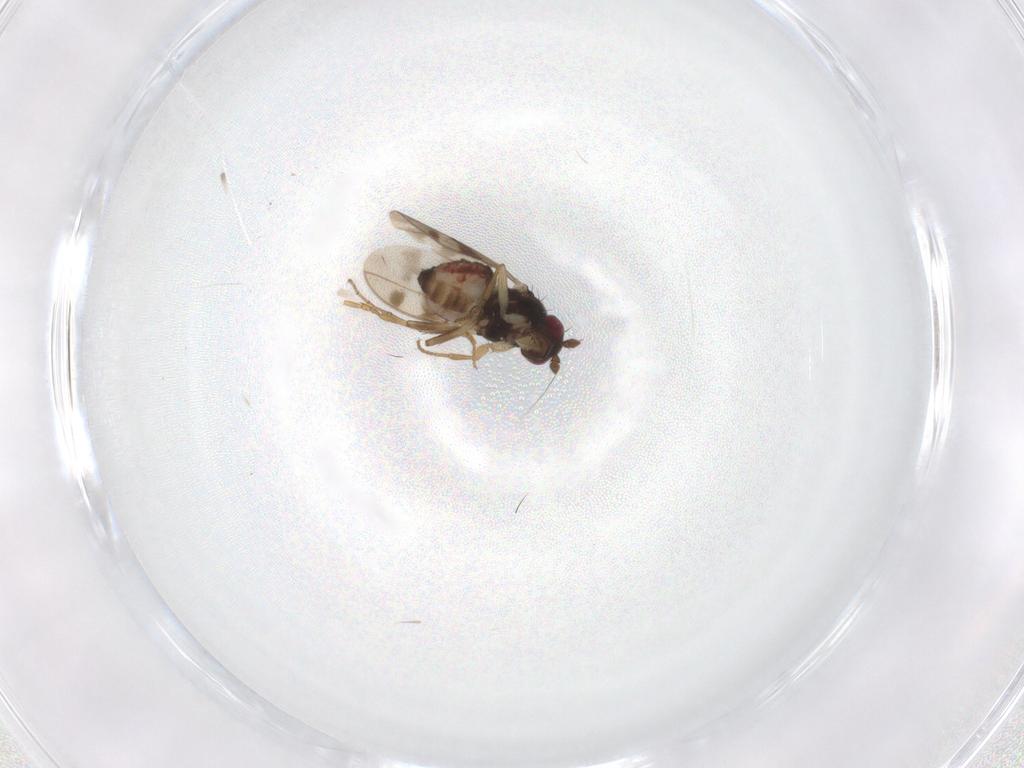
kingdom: Animalia
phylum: Arthropoda
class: Insecta
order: Diptera
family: Sphaeroceridae
